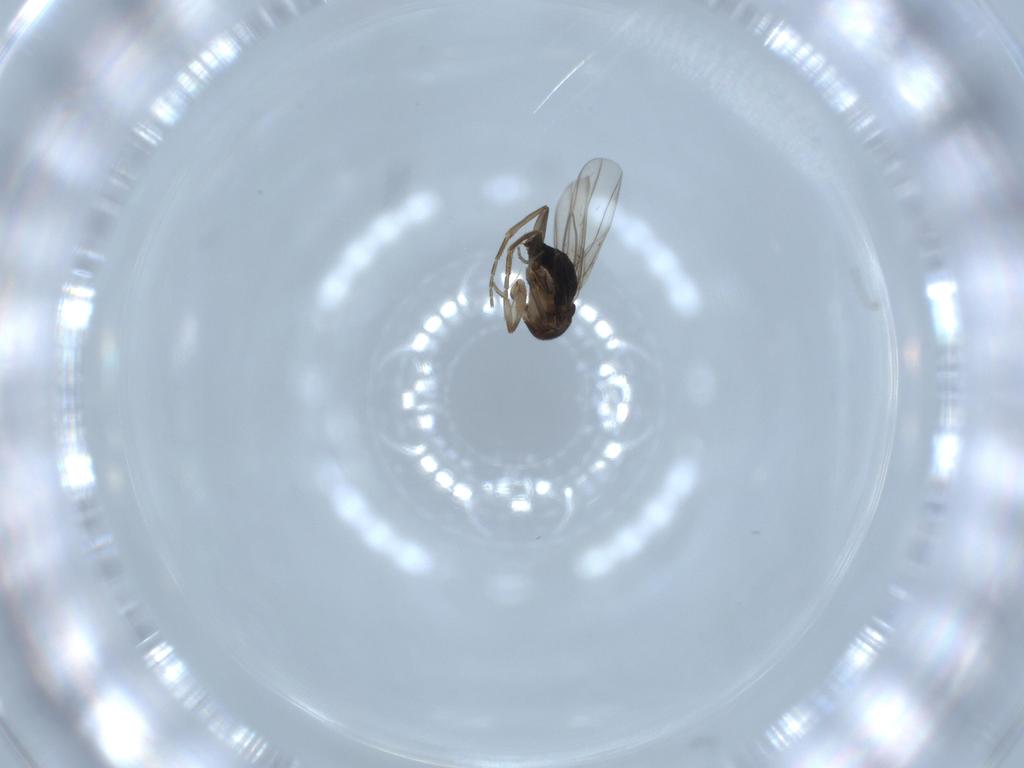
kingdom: Animalia
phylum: Arthropoda
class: Insecta
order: Diptera
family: Phoridae
